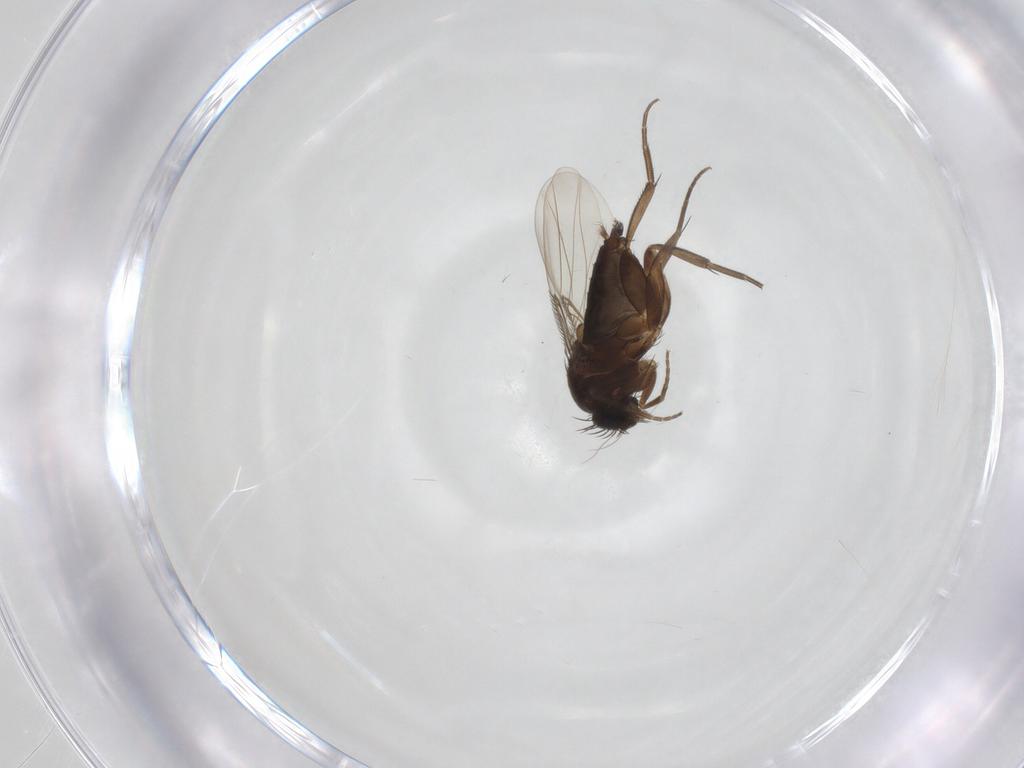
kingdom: Animalia
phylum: Arthropoda
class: Insecta
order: Diptera
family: Phoridae
